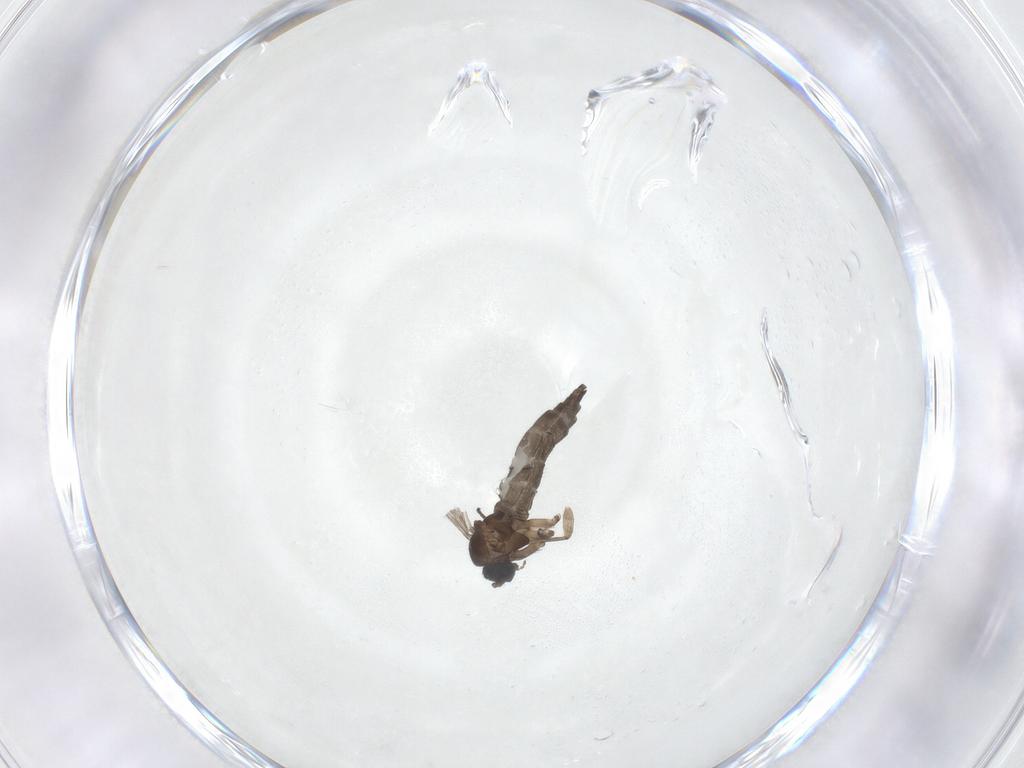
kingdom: Animalia
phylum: Arthropoda
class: Insecta
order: Diptera
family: Sciaridae
